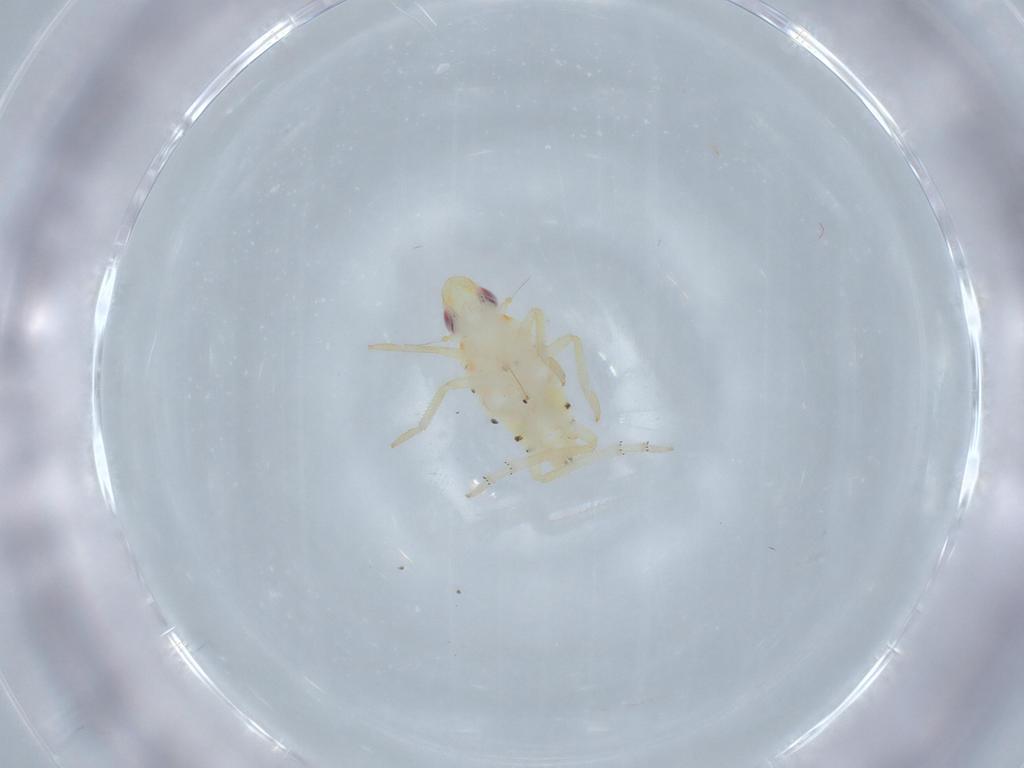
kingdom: Animalia
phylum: Arthropoda
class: Insecta
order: Hemiptera
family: Tropiduchidae
